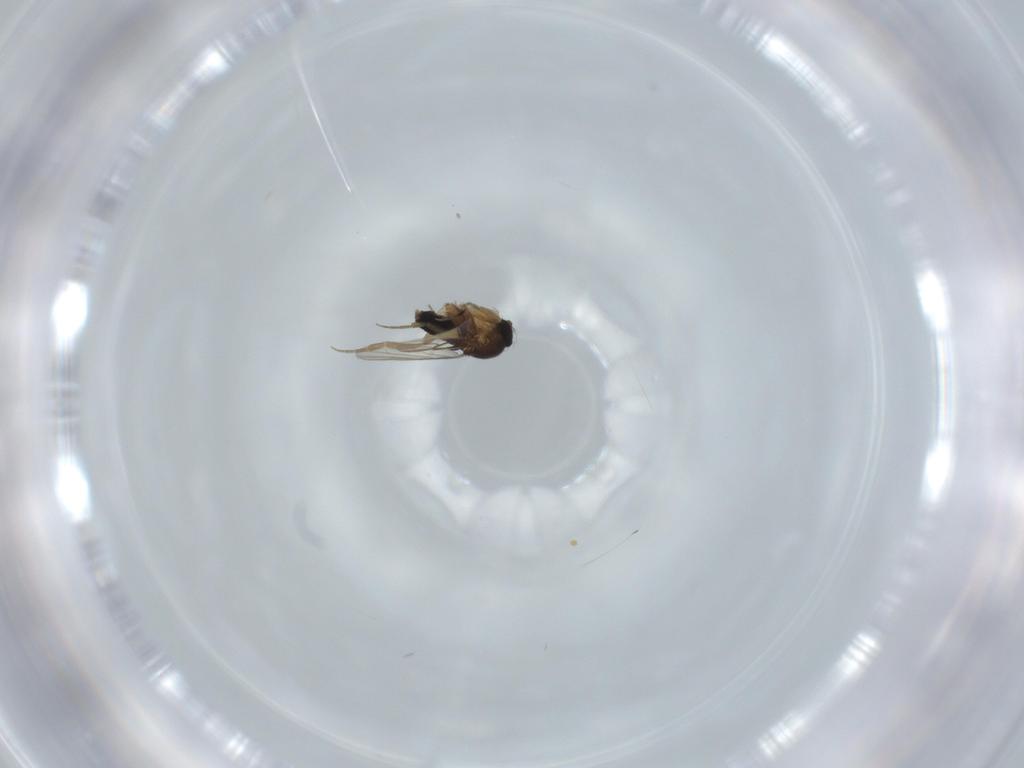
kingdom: Animalia
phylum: Arthropoda
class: Insecta
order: Diptera
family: Phoridae
